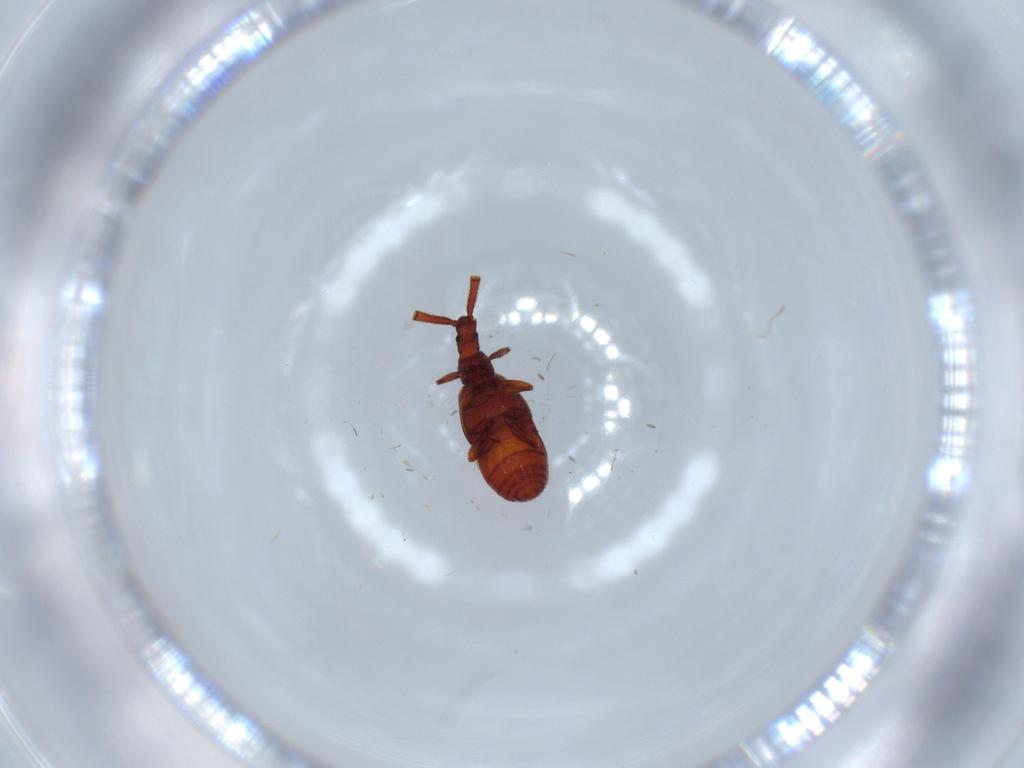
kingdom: Animalia
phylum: Arthropoda
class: Insecta
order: Coleoptera
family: Staphylinidae
